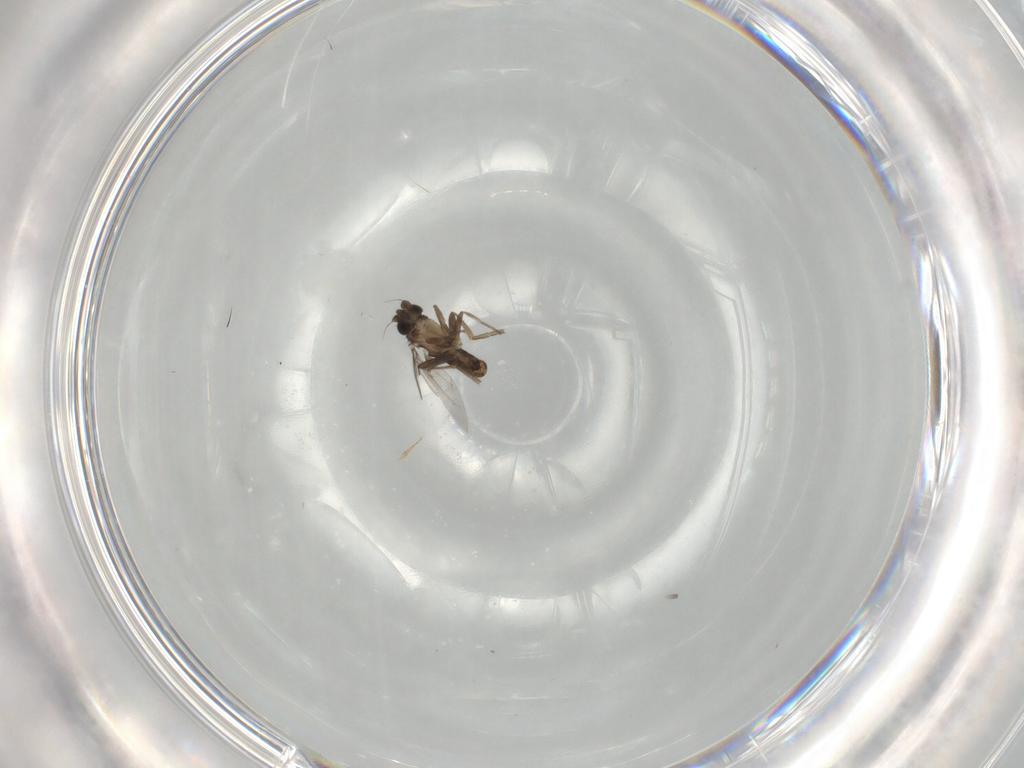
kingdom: Animalia
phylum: Arthropoda
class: Insecta
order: Diptera
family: Phoridae
